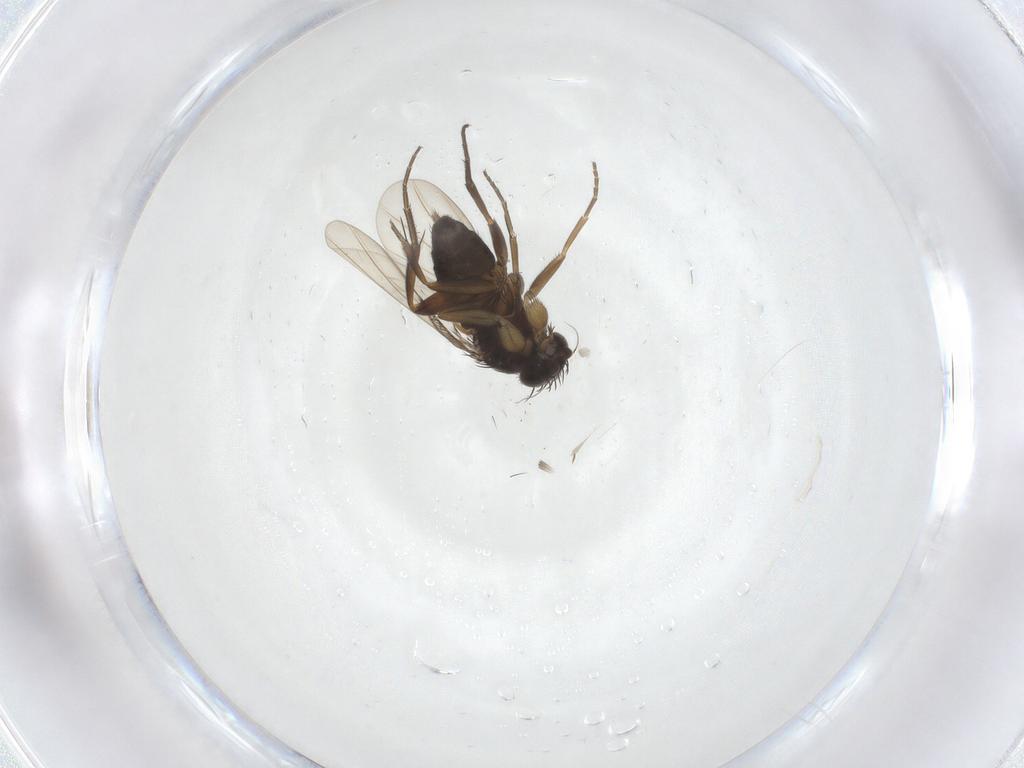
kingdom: Animalia
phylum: Arthropoda
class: Insecta
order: Diptera
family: Phoridae
